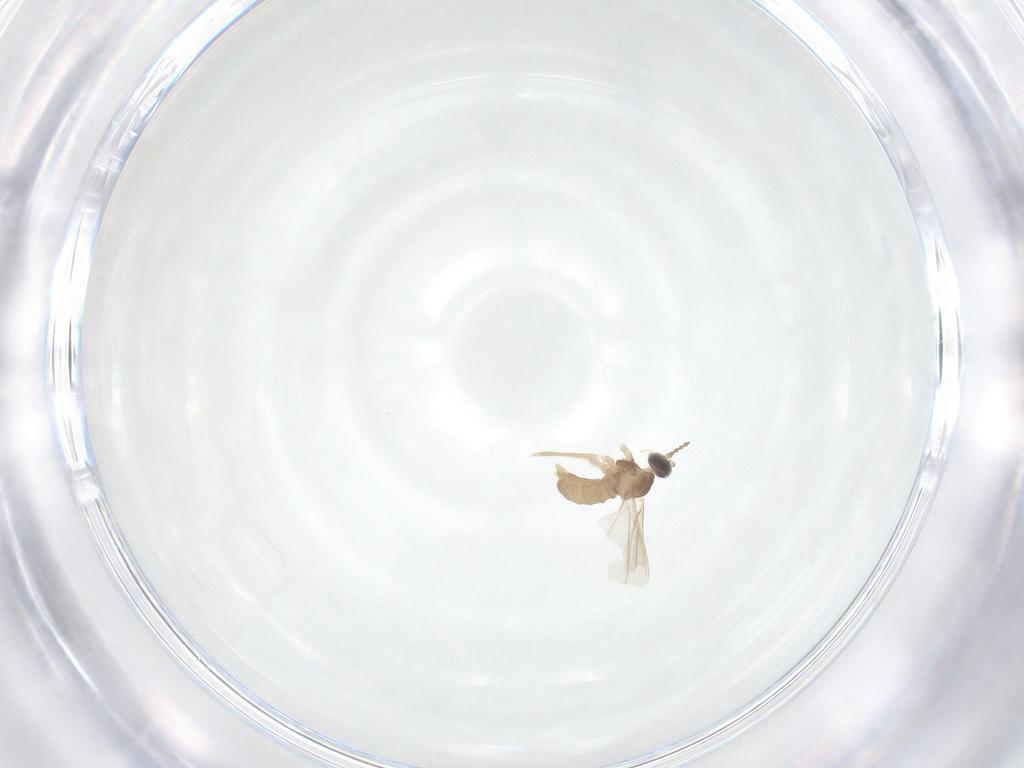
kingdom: Animalia
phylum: Arthropoda
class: Insecta
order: Diptera
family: Cecidomyiidae
